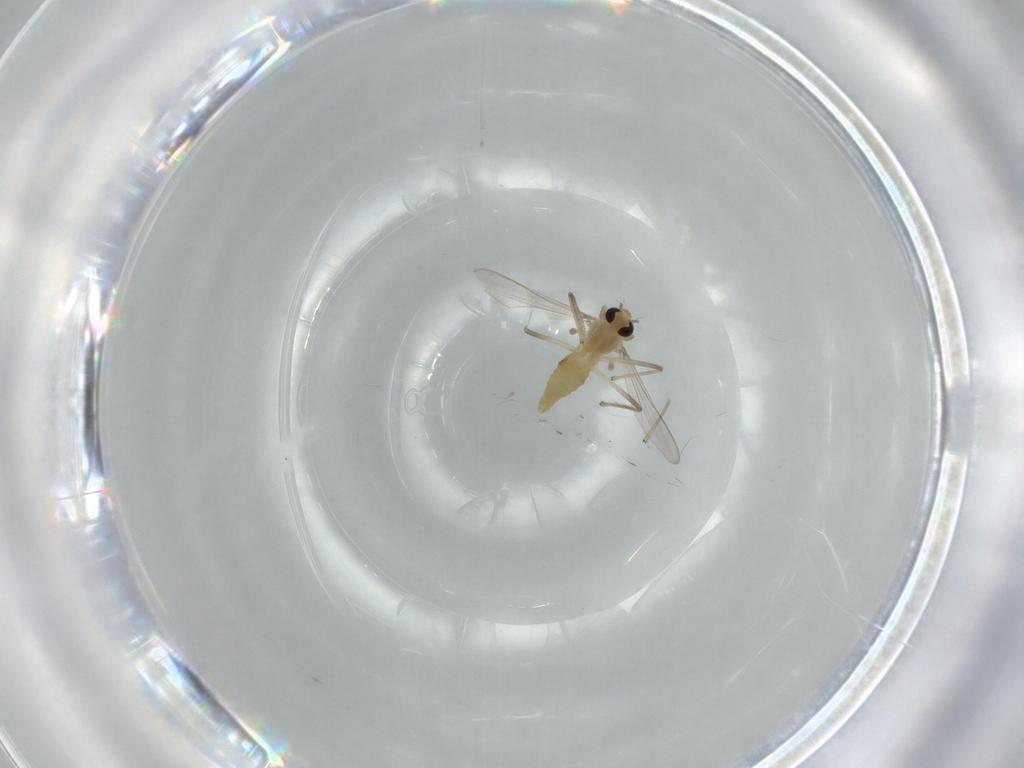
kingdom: Animalia
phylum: Arthropoda
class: Insecta
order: Diptera
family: Chironomidae
